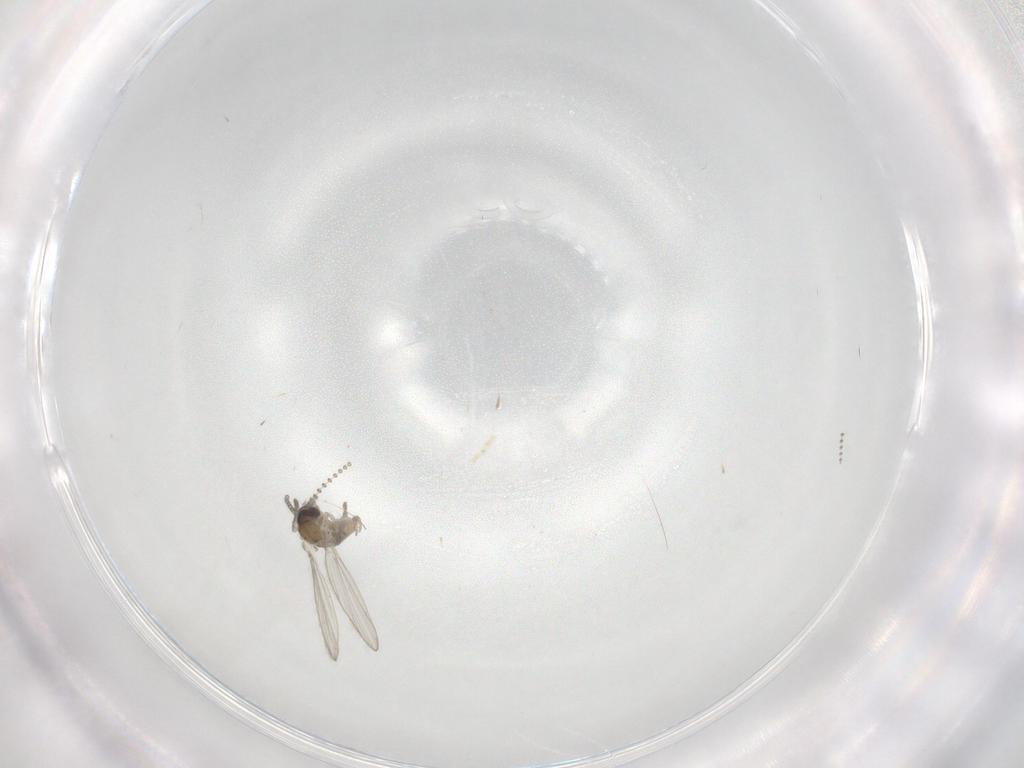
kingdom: Animalia
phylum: Arthropoda
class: Insecta
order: Diptera
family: Psychodidae
